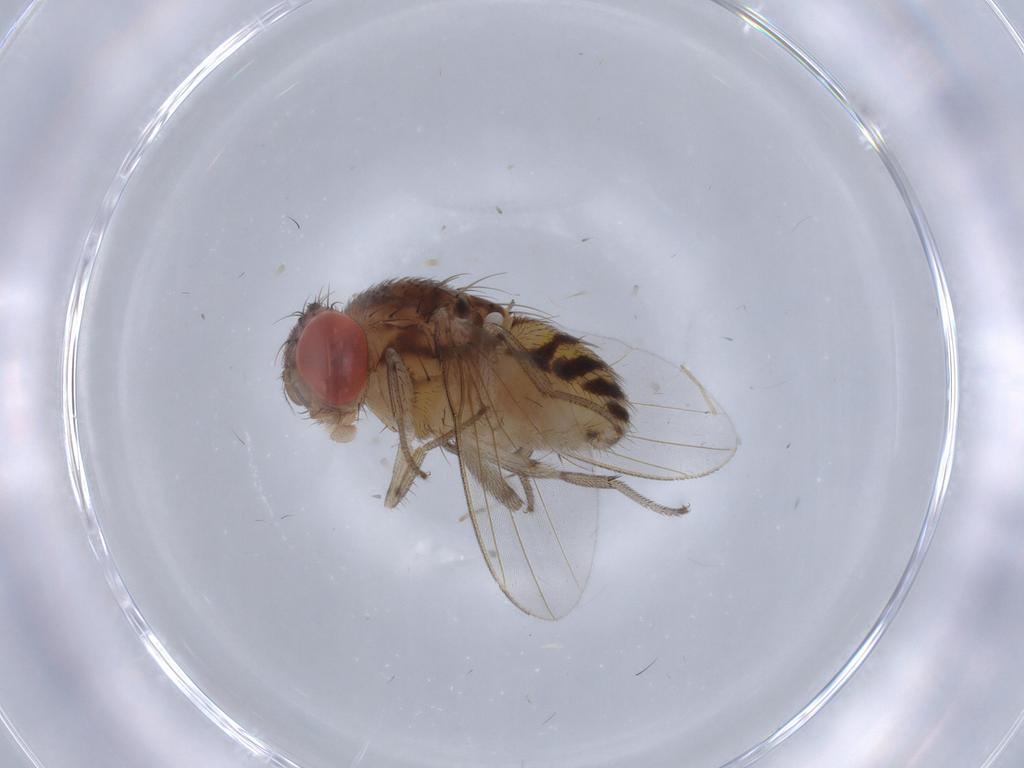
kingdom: Animalia
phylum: Arthropoda
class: Insecta
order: Diptera
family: Drosophilidae
